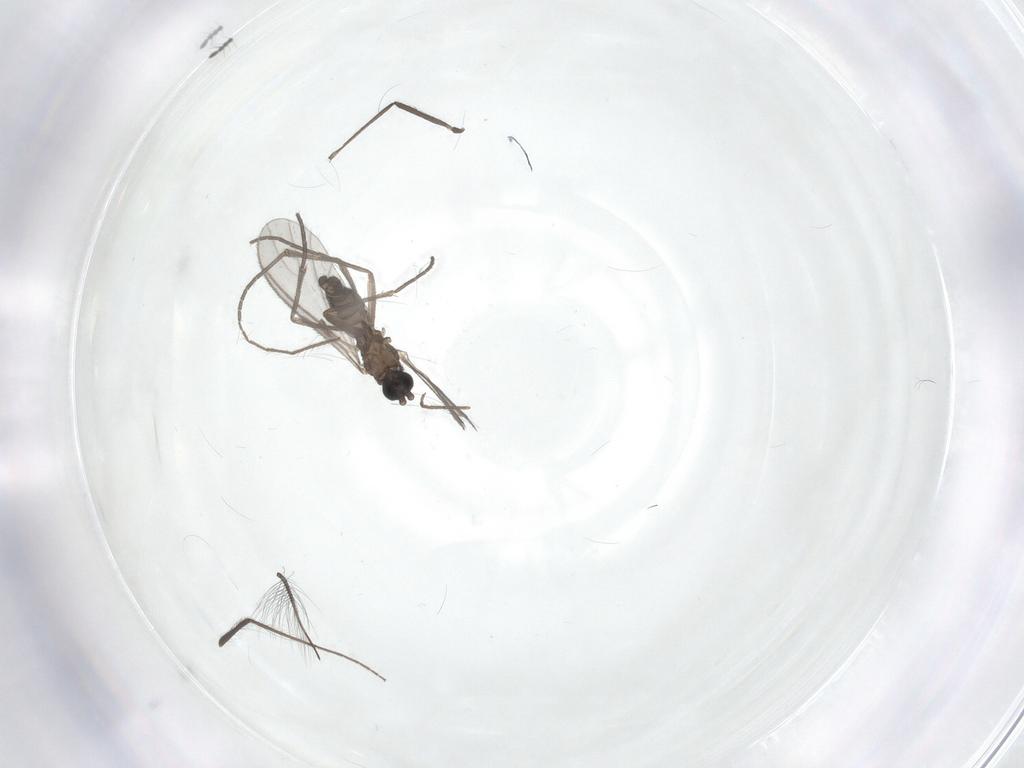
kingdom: Animalia
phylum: Arthropoda
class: Insecta
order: Diptera
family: Sciaridae
